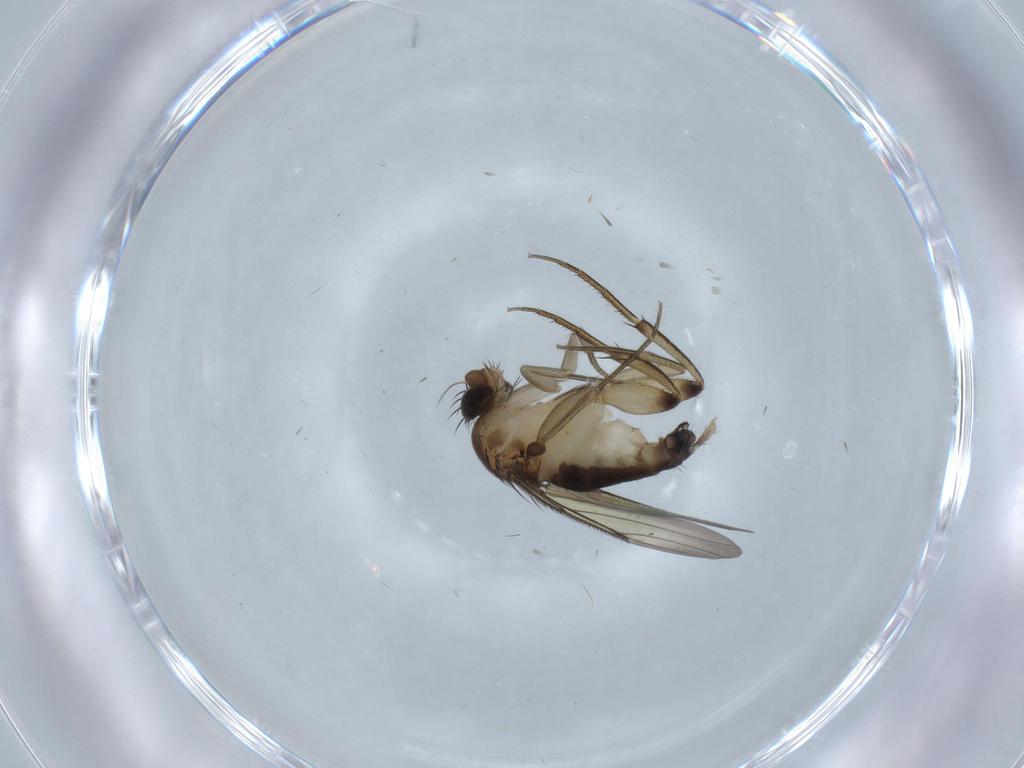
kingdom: Animalia
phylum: Arthropoda
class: Insecta
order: Diptera
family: Phoridae
